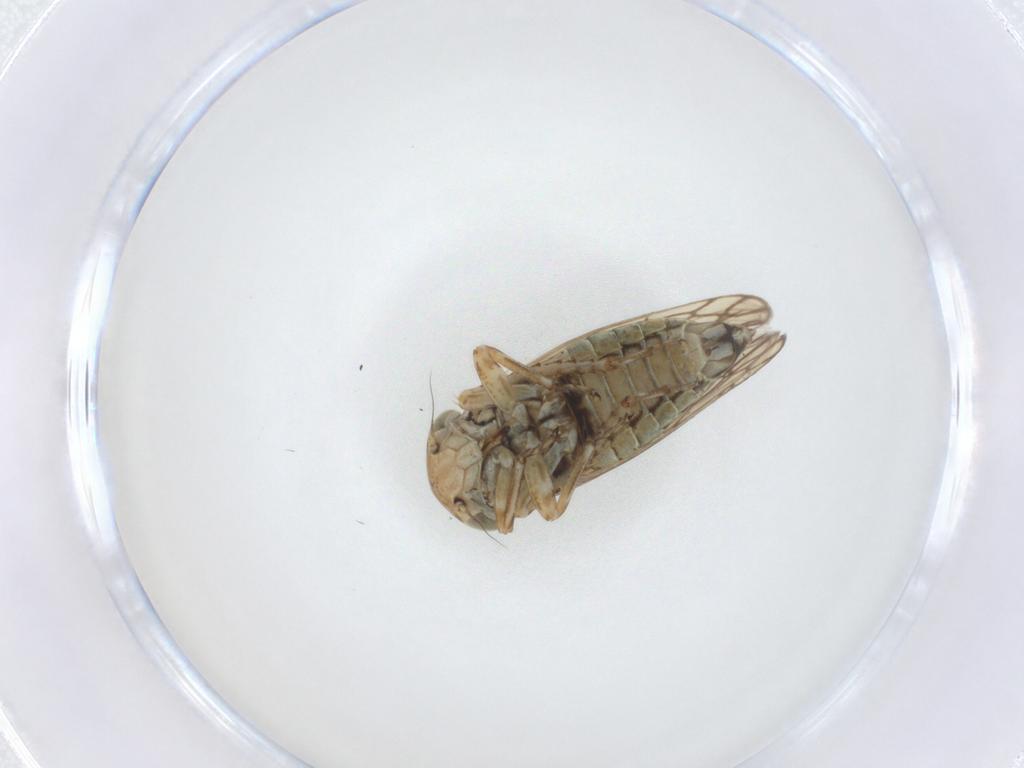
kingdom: Animalia
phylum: Arthropoda
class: Insecta
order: Hemiptera
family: Cicadellidae
